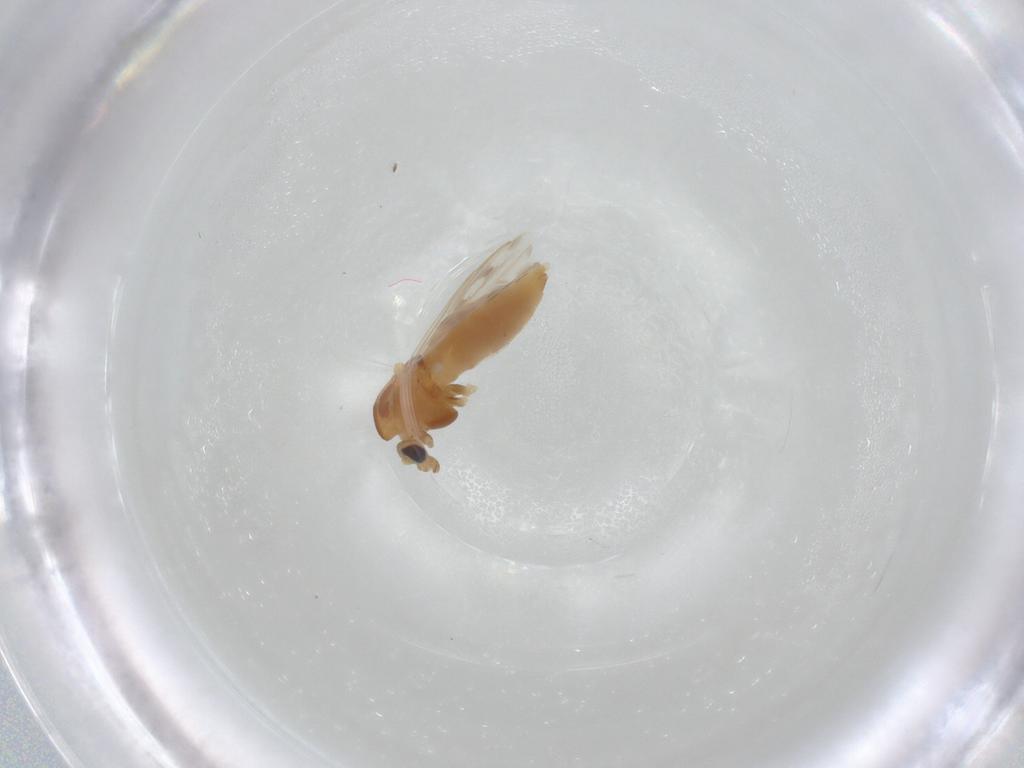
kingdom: Animalia
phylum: Arthropoda
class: Insecta
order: Diptera
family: Chironomidae
